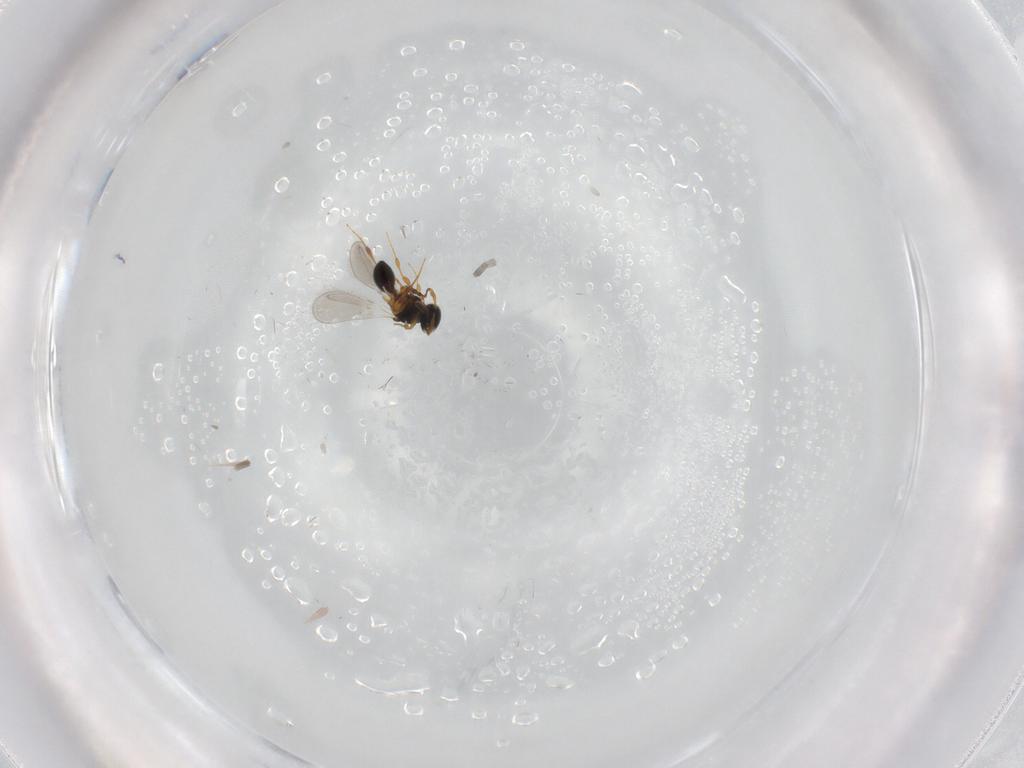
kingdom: Animalia
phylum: Arthropoda
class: Insecta
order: Hymenoptera
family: Platygastridae
